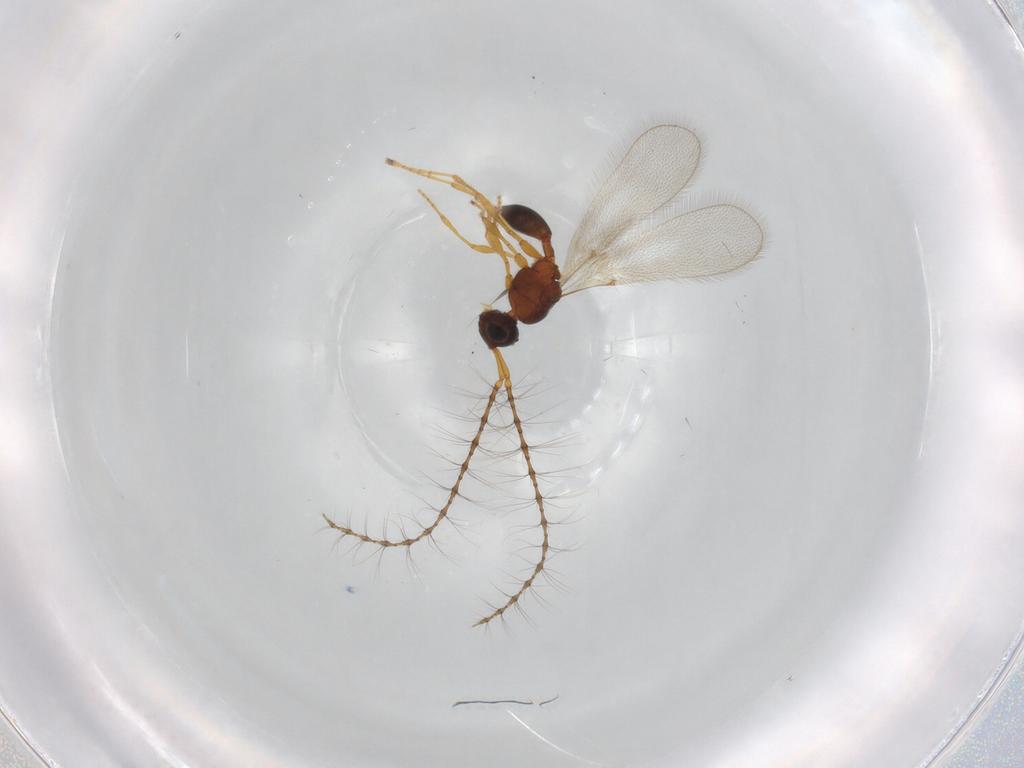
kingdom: Animalia
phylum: Arthropoda
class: Insecta
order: Hymenoptera
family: Diapriidae
